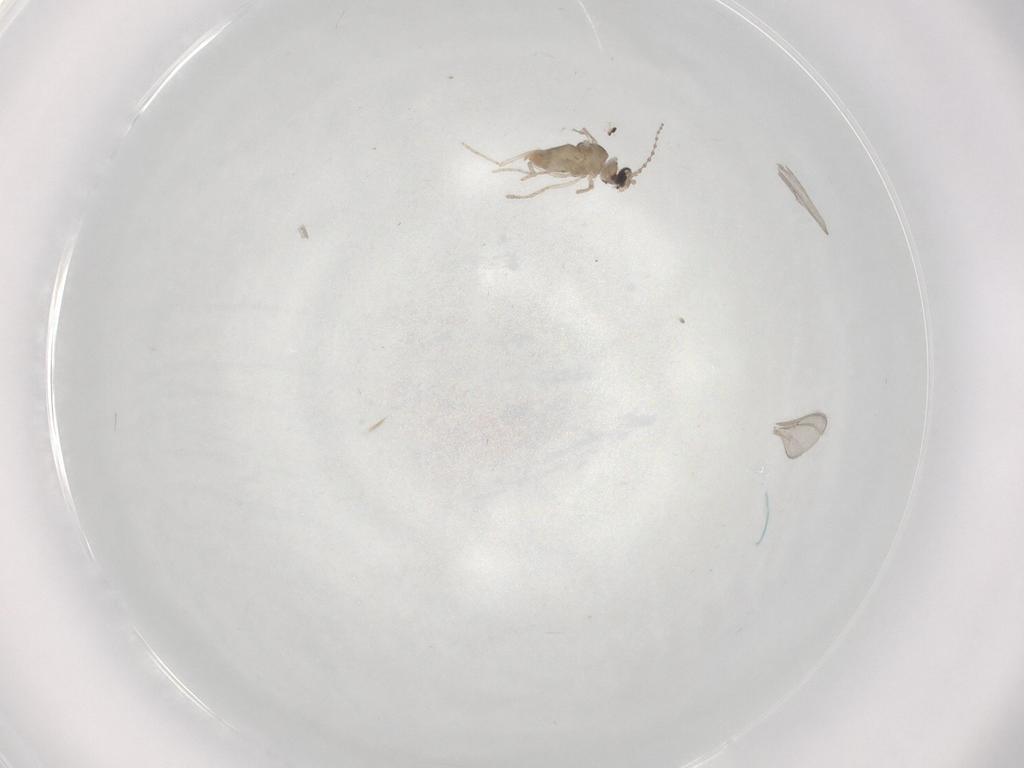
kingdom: Animalia
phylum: Arthropoda
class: Insecta
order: Diptera
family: Cecidomyiidae
